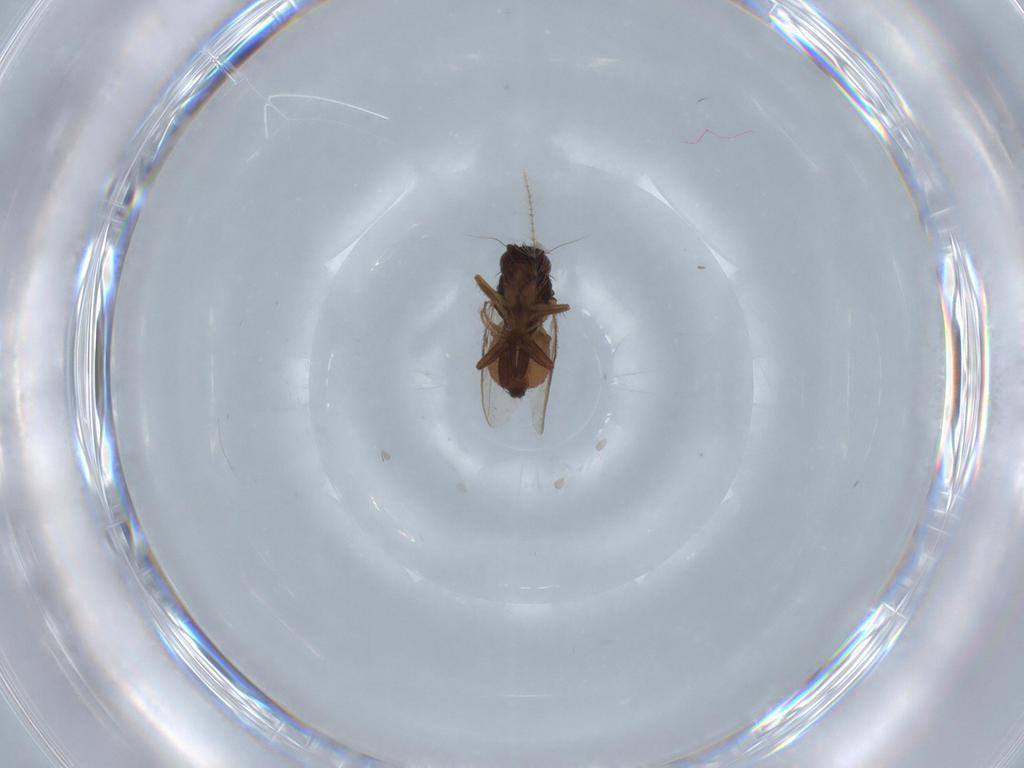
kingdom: Animalia
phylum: Arthropoda
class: Insecta
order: Diptera
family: Sphaeroceridae
